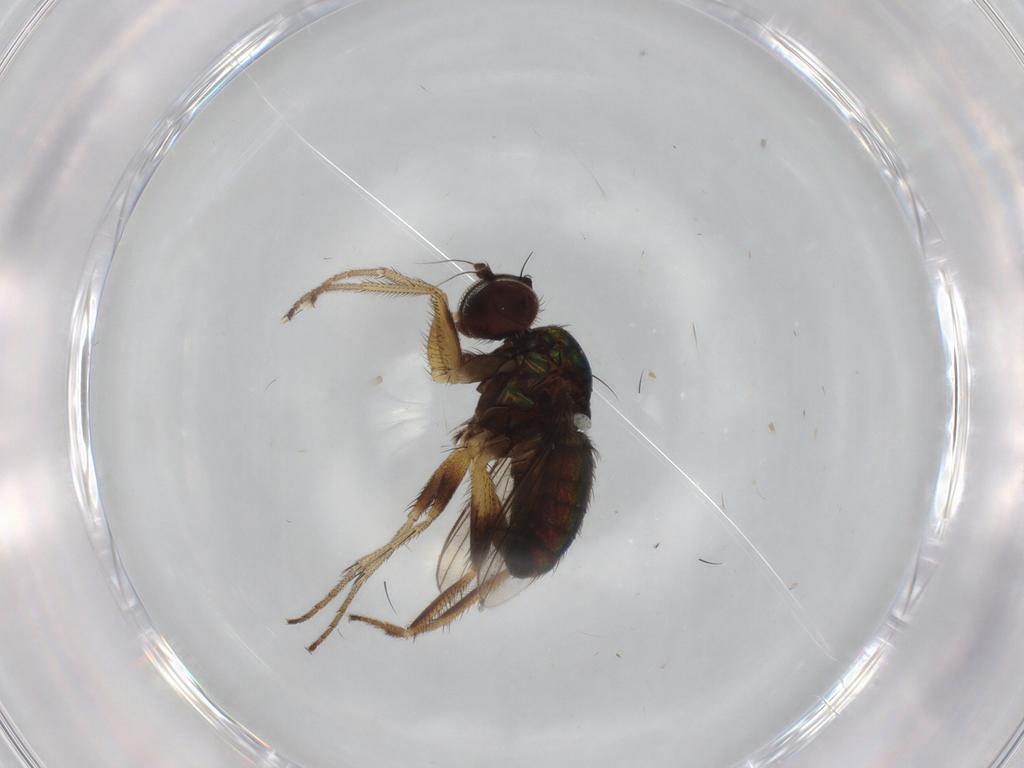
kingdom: Animalia
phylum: Arthropoda
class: Insecta
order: Diptera
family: Dolichopodidae
